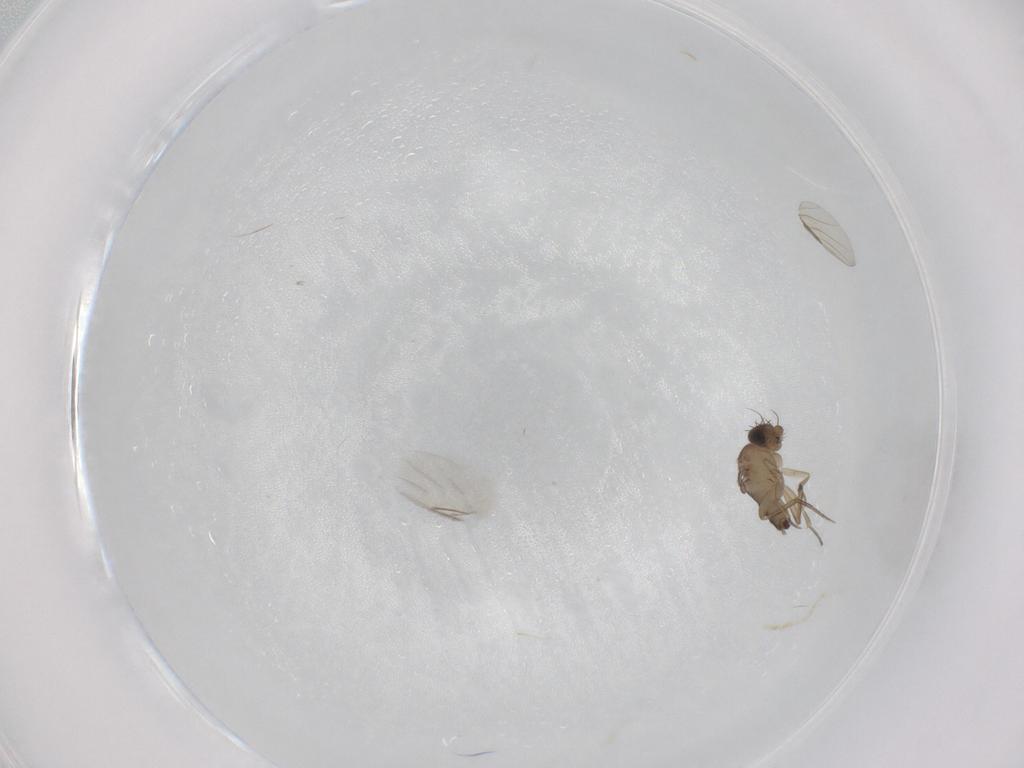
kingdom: Animalia
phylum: Arthropoda
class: Insecta
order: Diptera
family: Phoridae
